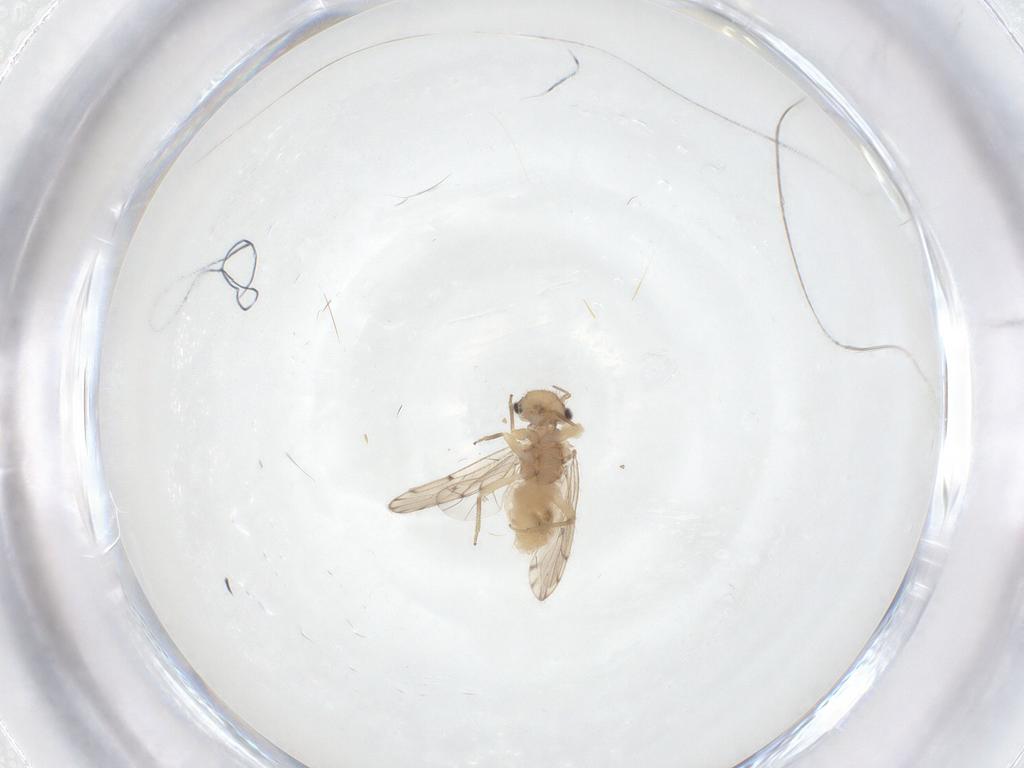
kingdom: Animalia
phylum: Arthropoda
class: Insecta
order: Psocodea
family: Ectopsocidae
